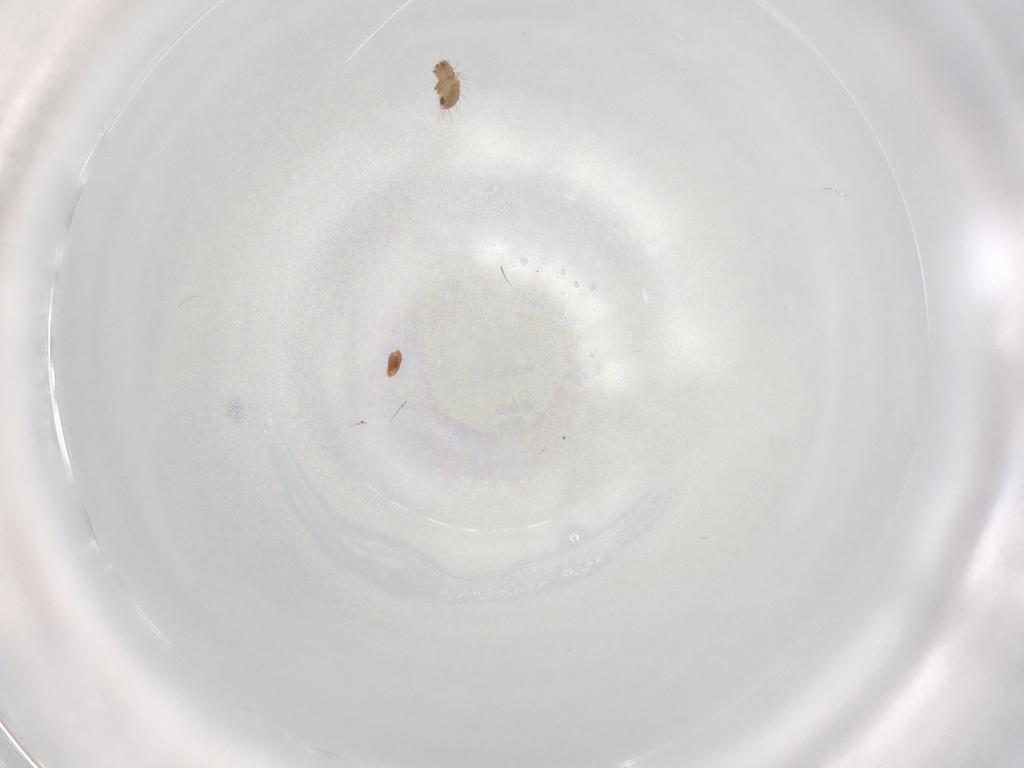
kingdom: Animalia
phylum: Arthropoda
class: Arachnida
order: Sarcoptiformes
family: Humerobatidae
